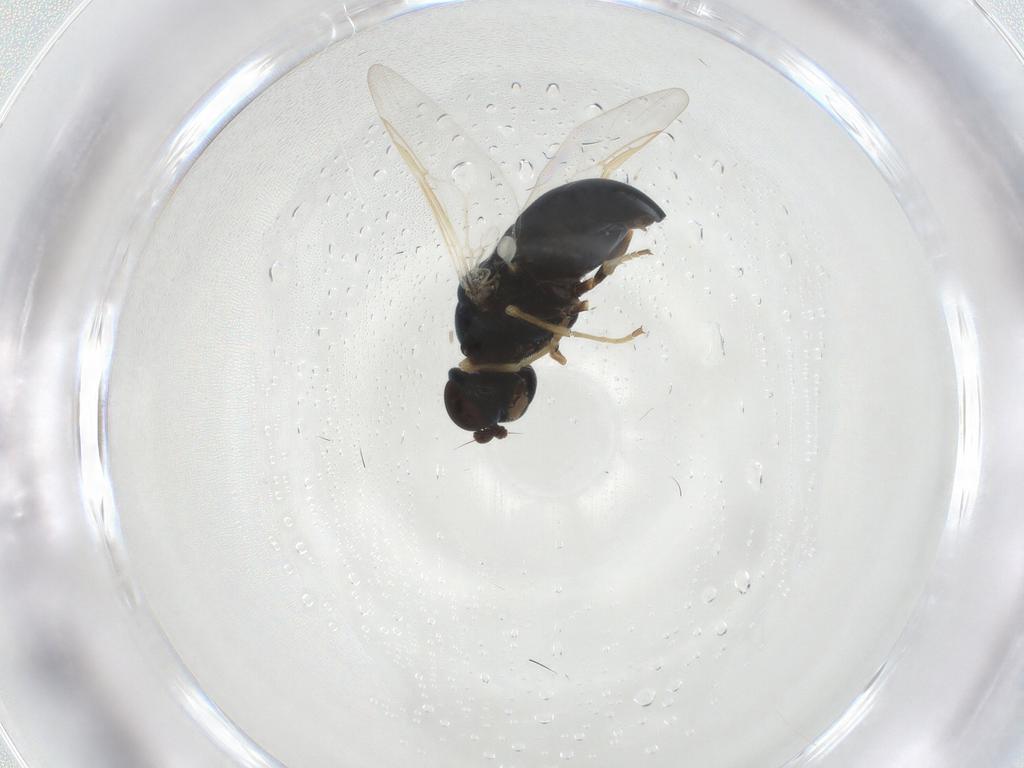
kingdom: Animalia
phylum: Arthropoda
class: Insecta
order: Diptera
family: Stratiomyidae
